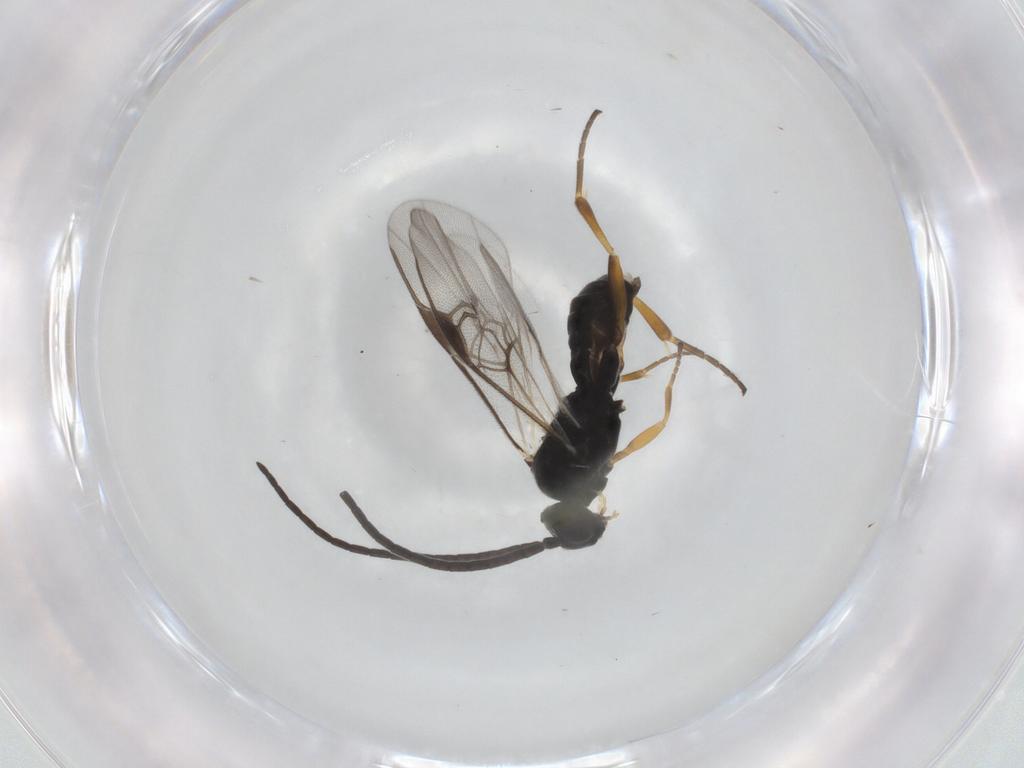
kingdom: Animalia
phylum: Arthropoda
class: Insecta
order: Hymenoptera
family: Braconidae
